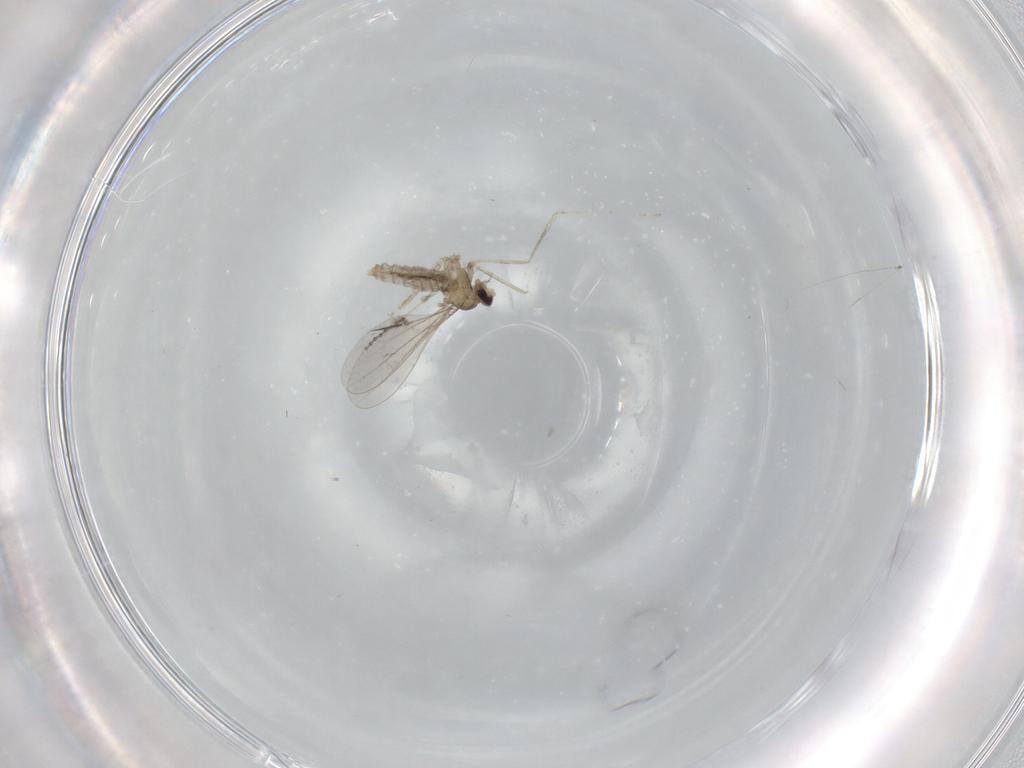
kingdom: Animalia
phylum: Arthropoda
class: Insecta
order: Diptera
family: Cecidomyiidae
